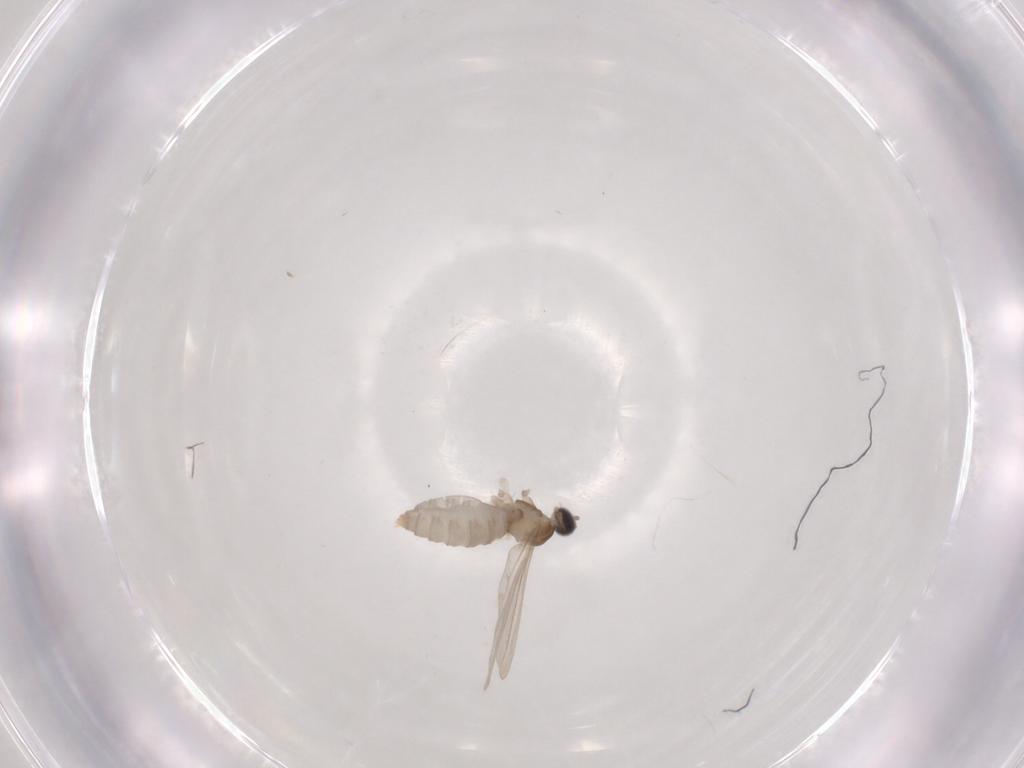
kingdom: Animalia
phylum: Arthropoda
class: Insecta
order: Diptera
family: Cecidomyiidae
